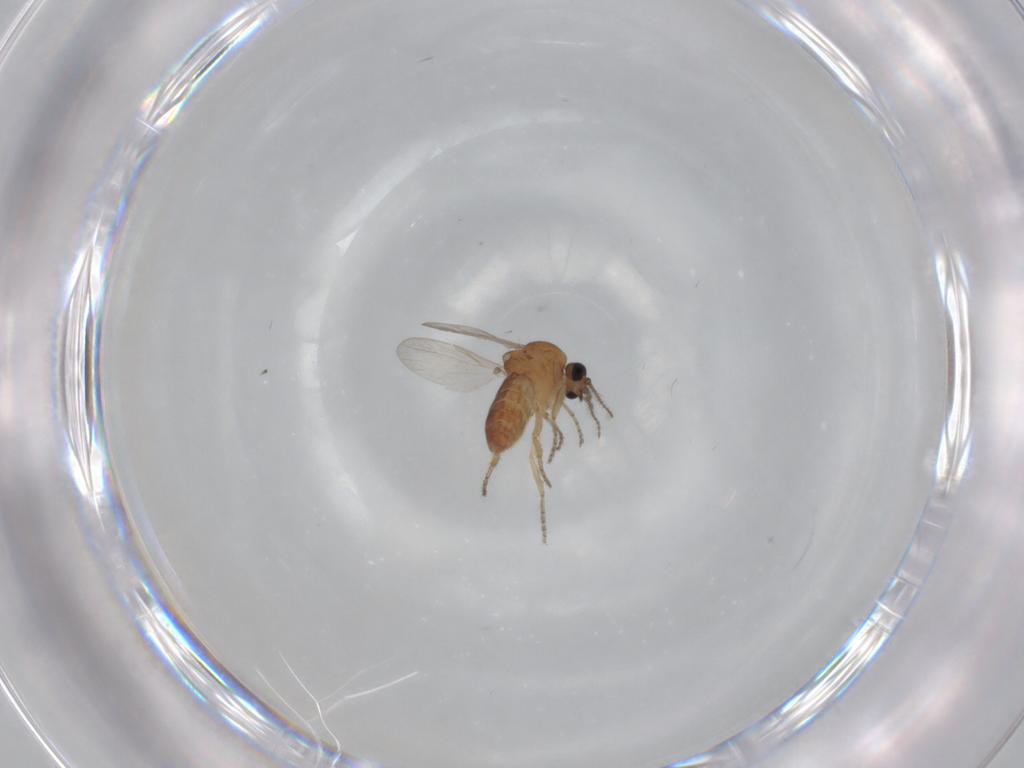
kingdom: Animalia
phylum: Arthropoda
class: Insecta
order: Diptera
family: Ceratopogonidae
